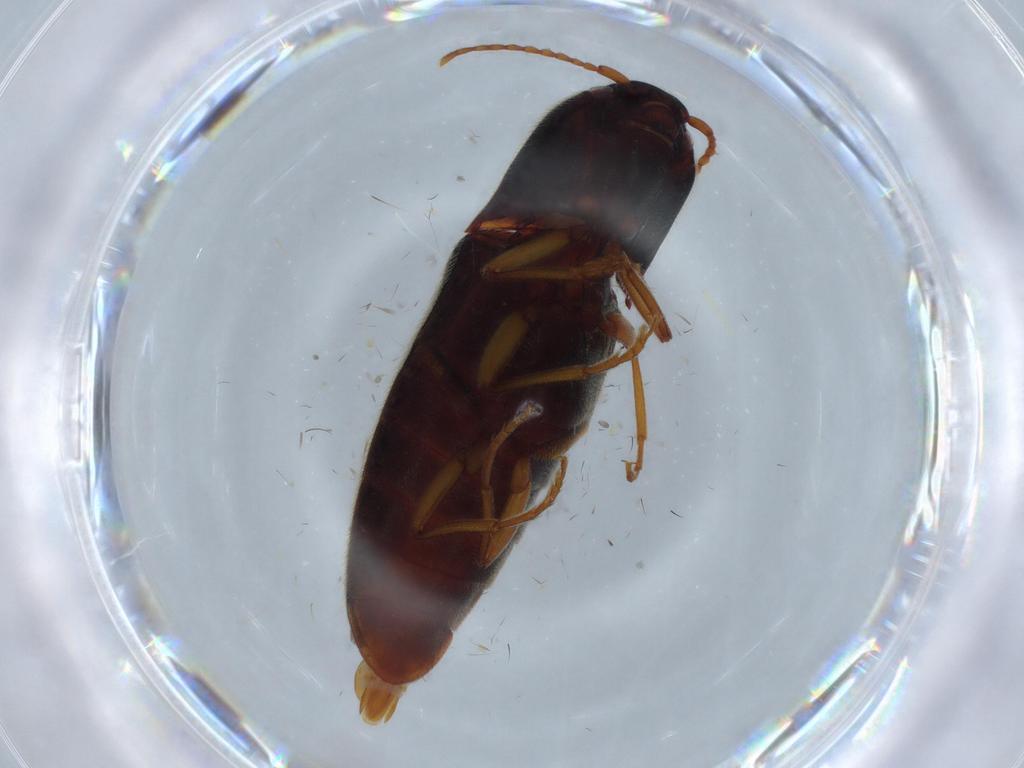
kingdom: Animalia
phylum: Arthropoda
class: Insecta
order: Coleoptera
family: Elateridae
